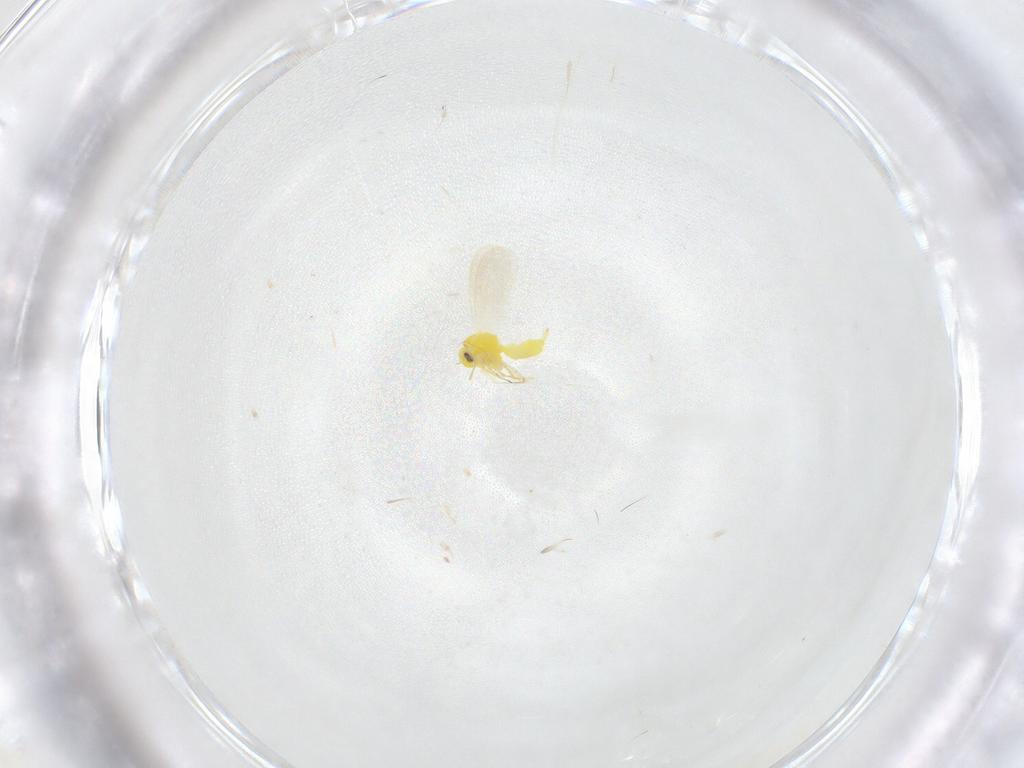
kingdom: Animalia
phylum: Arthropoda
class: Insecta
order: Hemiptera
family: Aleyrodidae
